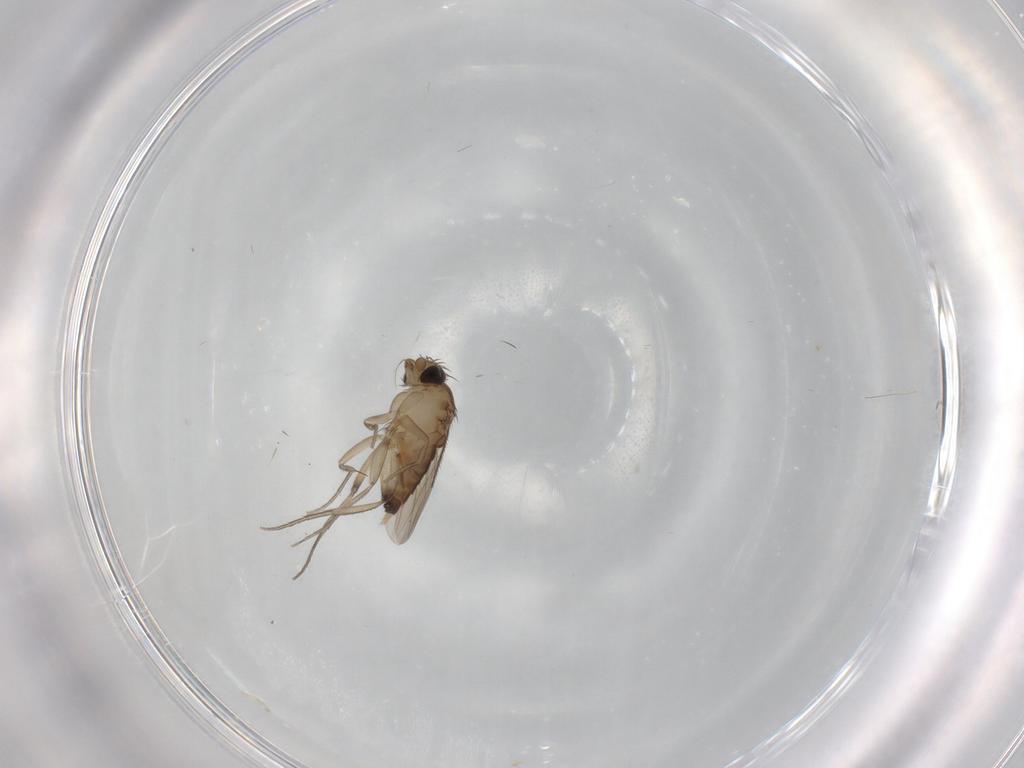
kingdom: Animalia
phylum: Arthropoda
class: Insecta
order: Diptera
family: Phoridae
